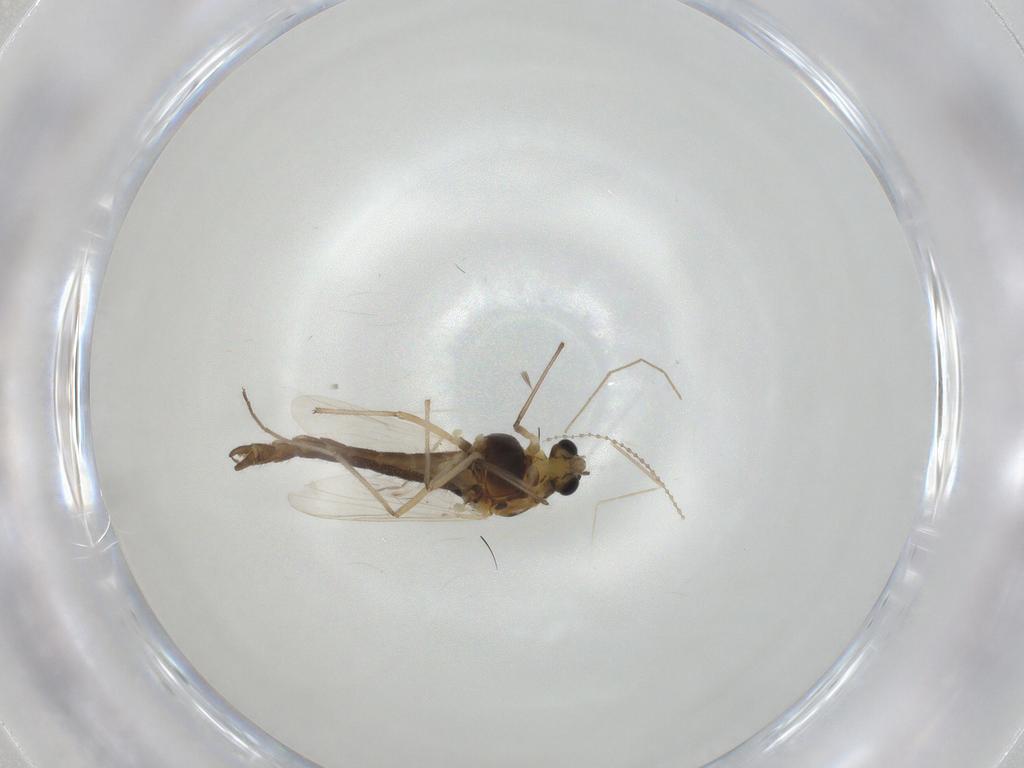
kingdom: Animalia
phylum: Arthropoda
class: Insecta
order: Diptera
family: Chironomidae
